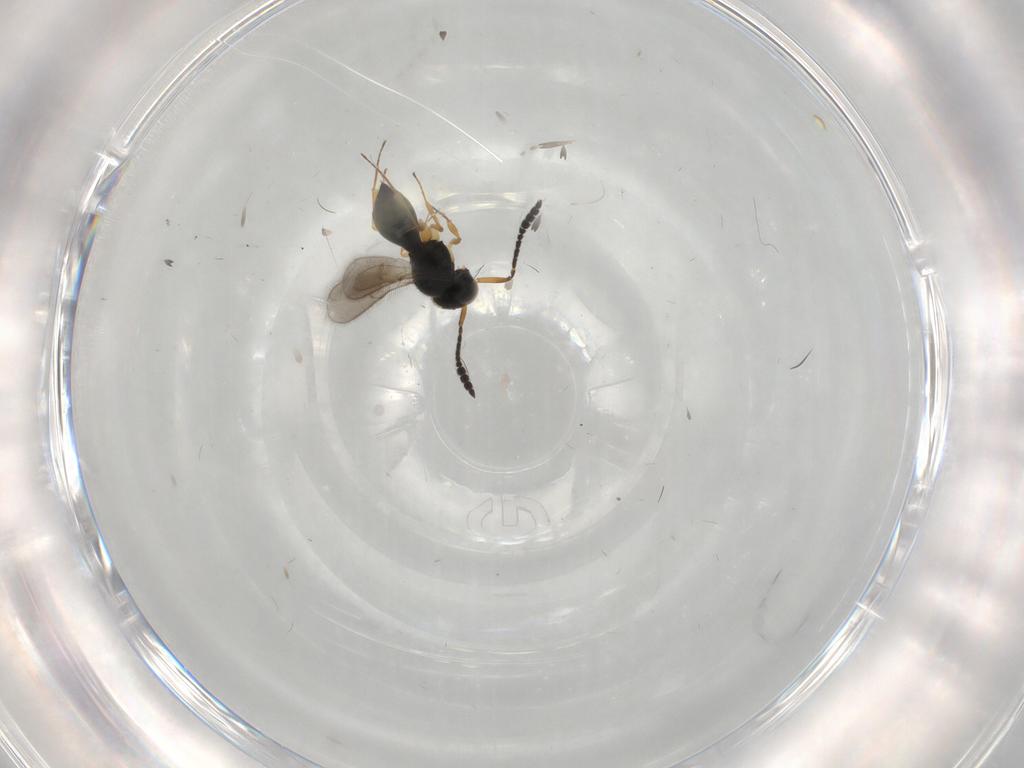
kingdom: Animalia
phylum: Arthropoda
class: Insecta
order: Hymenoptera
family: Scelionidae
